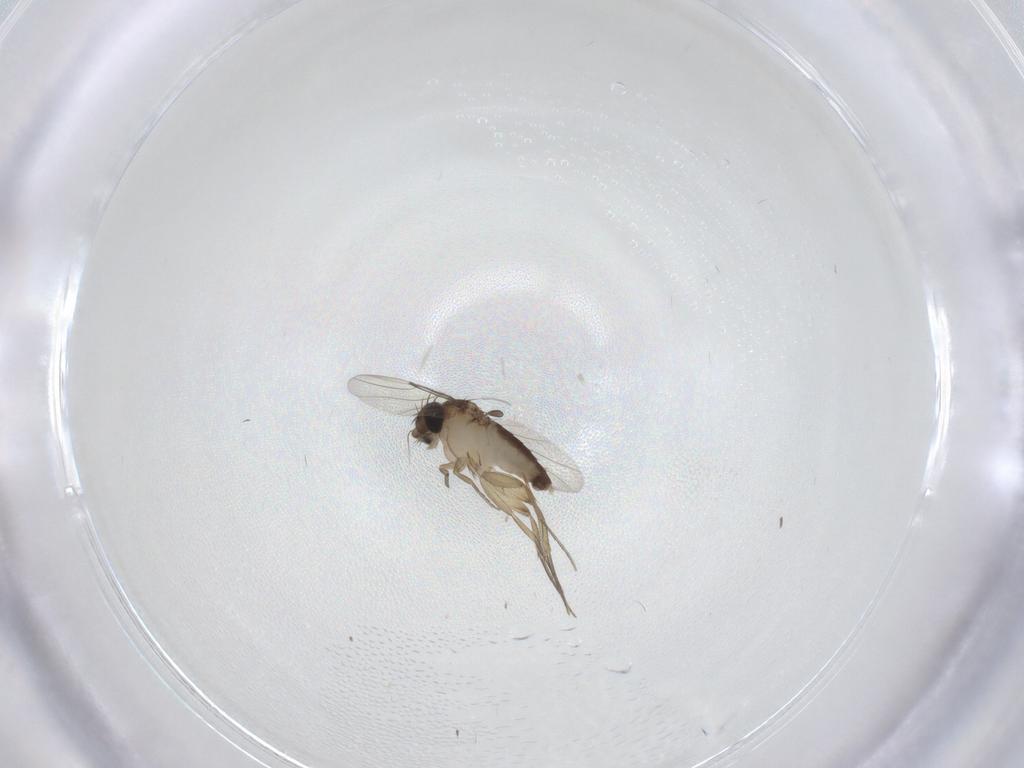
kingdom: Animalia
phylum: Arthropoda
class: Insecta
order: Diptera
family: Phoridae
